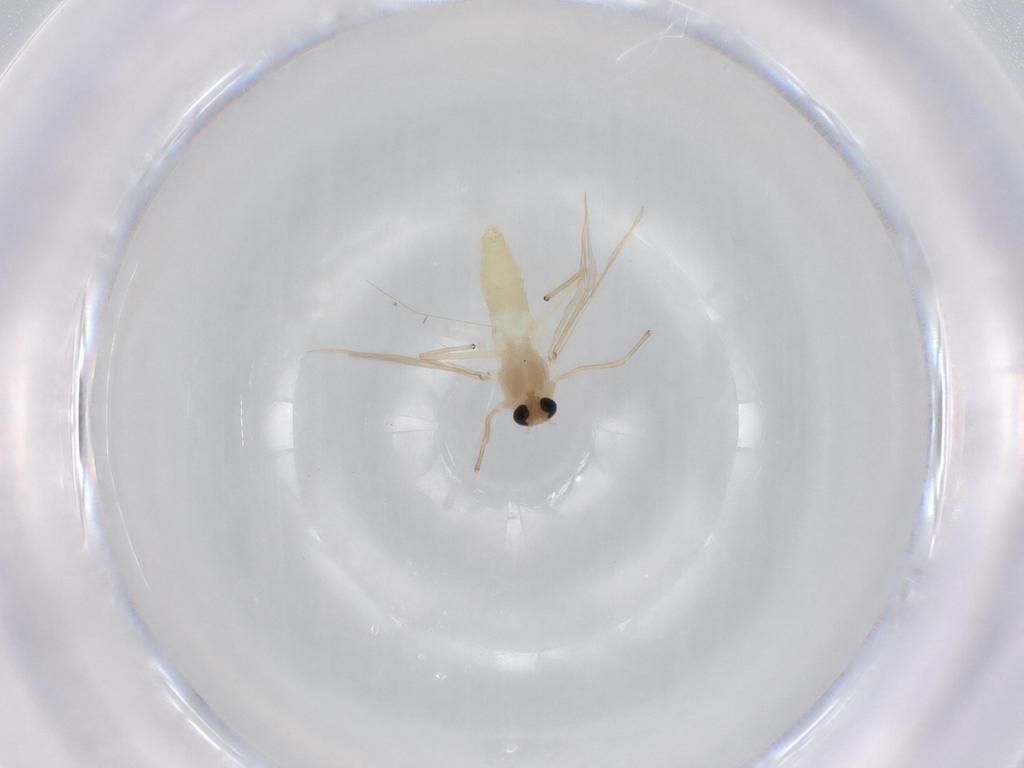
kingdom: Animalia
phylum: Arthropoda
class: Insecta
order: Diptera
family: Chironomidae
